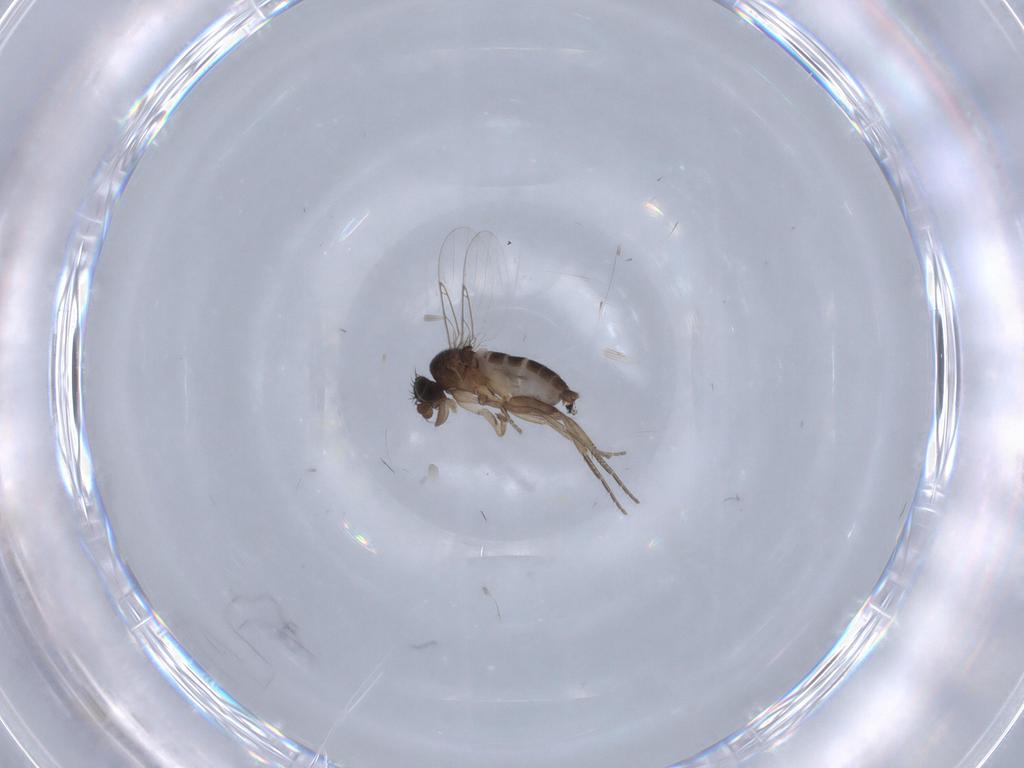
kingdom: Animalia
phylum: Arthropoda
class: Insecta
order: Diptera
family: Phoridae
